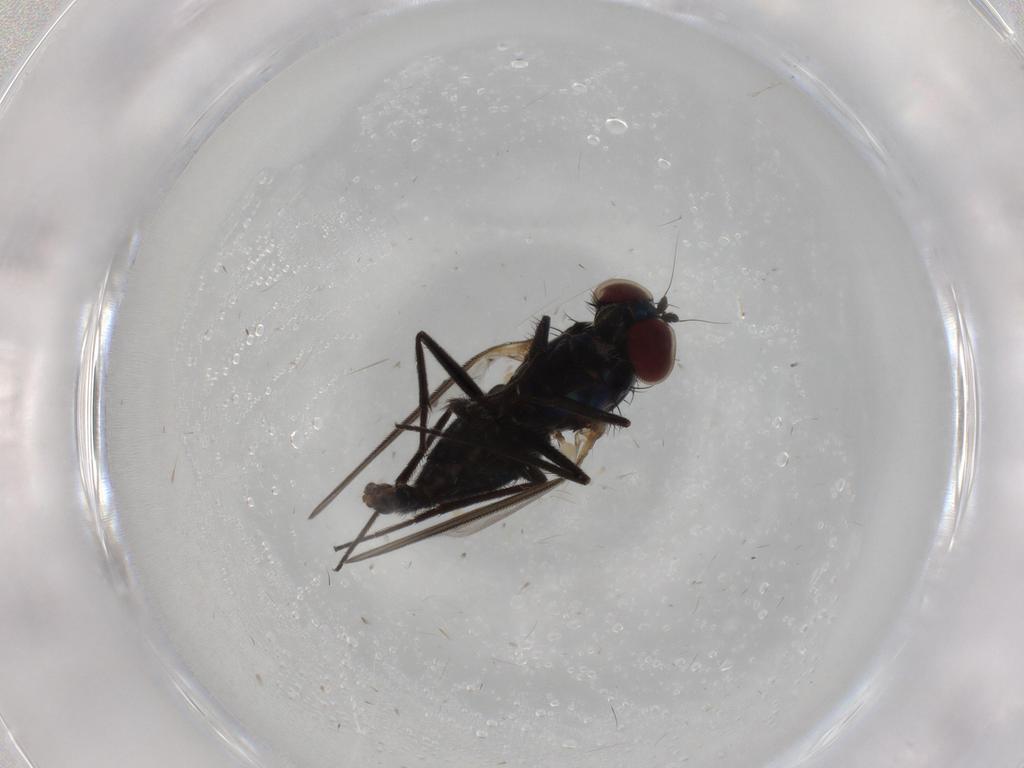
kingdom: Animalia
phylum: Arthropoda
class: Insecta
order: Diptera
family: Dolichopodidae
